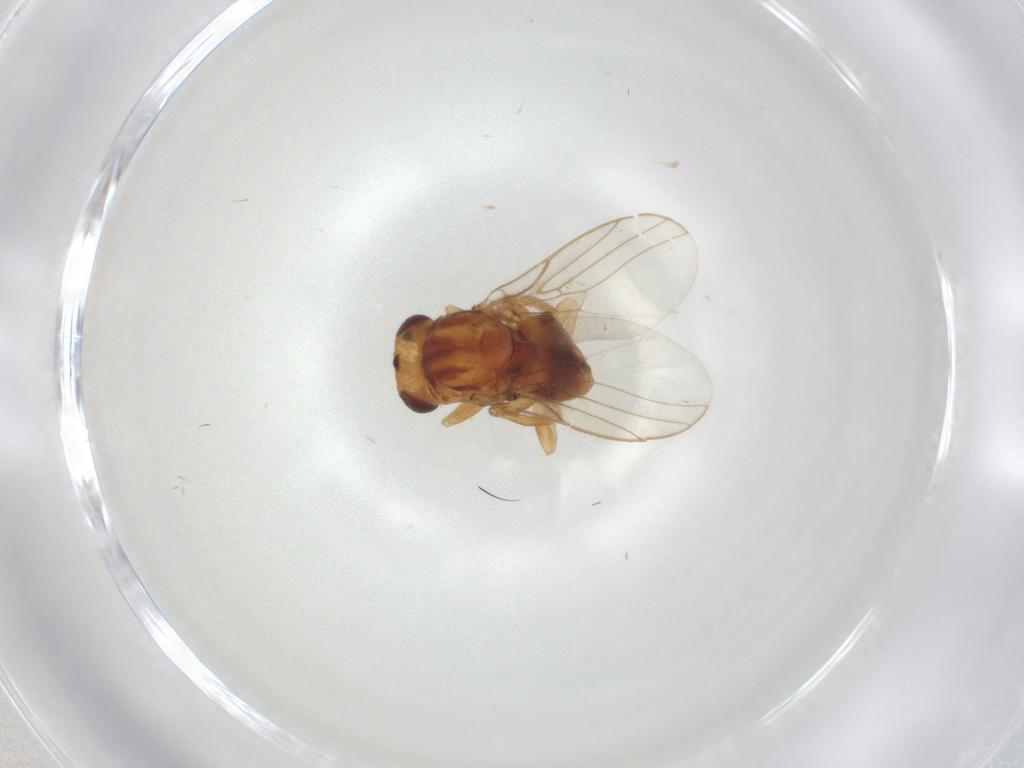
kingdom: Animalia
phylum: Arthropoda
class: Insecta
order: Diptera
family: Chloropidae
